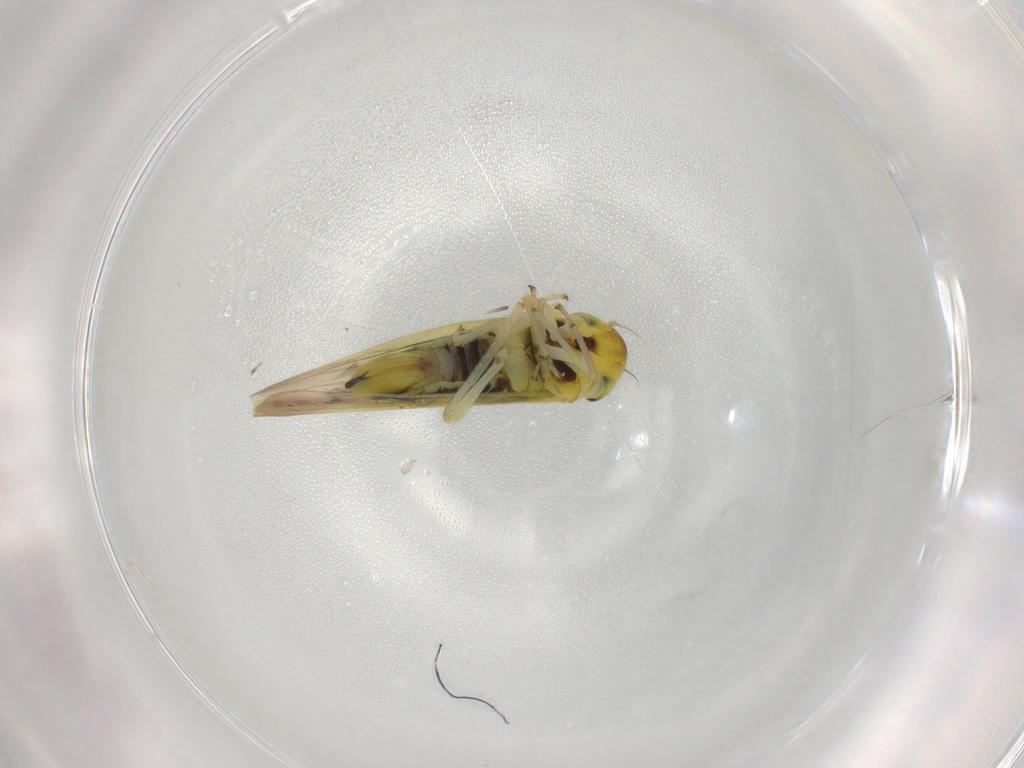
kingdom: Animalia
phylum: Arthropoda
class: Insecta
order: Hemiptera
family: Cicadellidae
